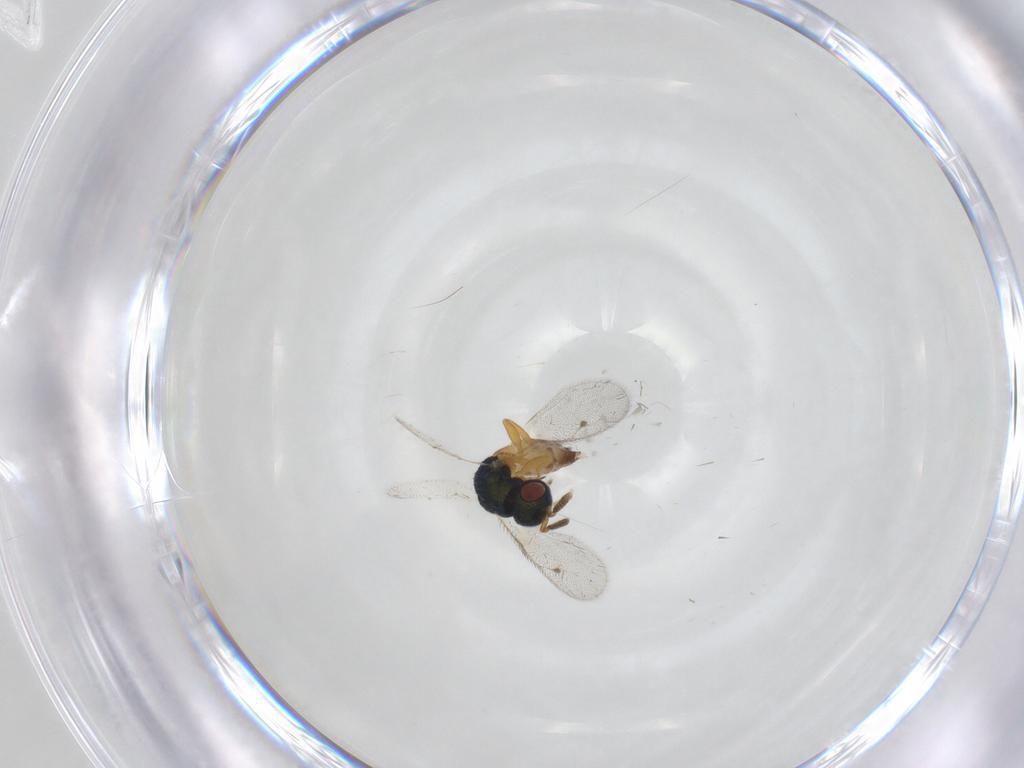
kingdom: Animalia
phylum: Arthropoda
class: Insecta
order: Hymenoptera
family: Pteromalidae
